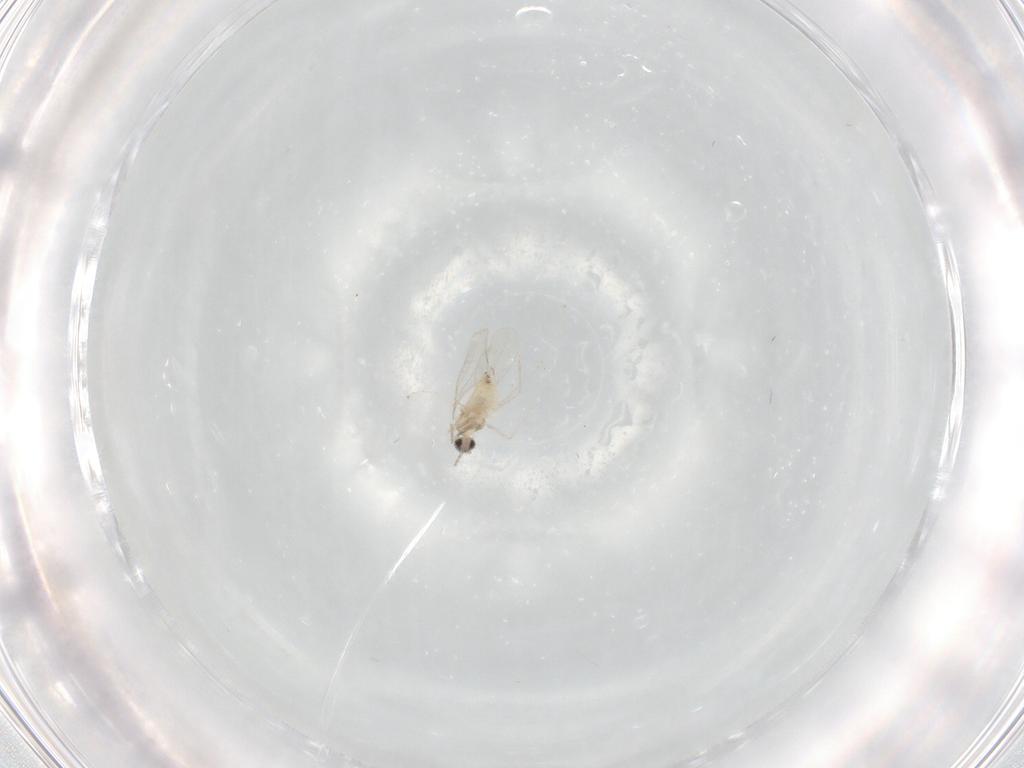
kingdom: Animalia
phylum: Arthropoda
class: Insecta
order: Diptera
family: Cecidomyiidae
